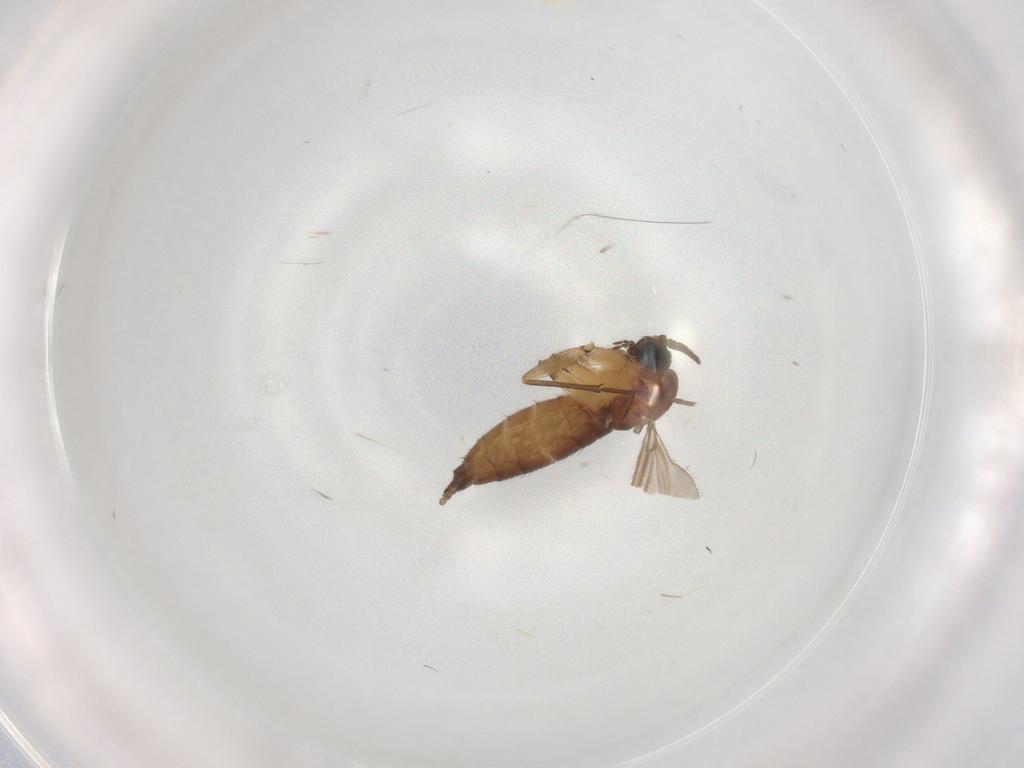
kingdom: Animalia
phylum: Arthropoda
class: Insecta
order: Diptera
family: Sciaridae
